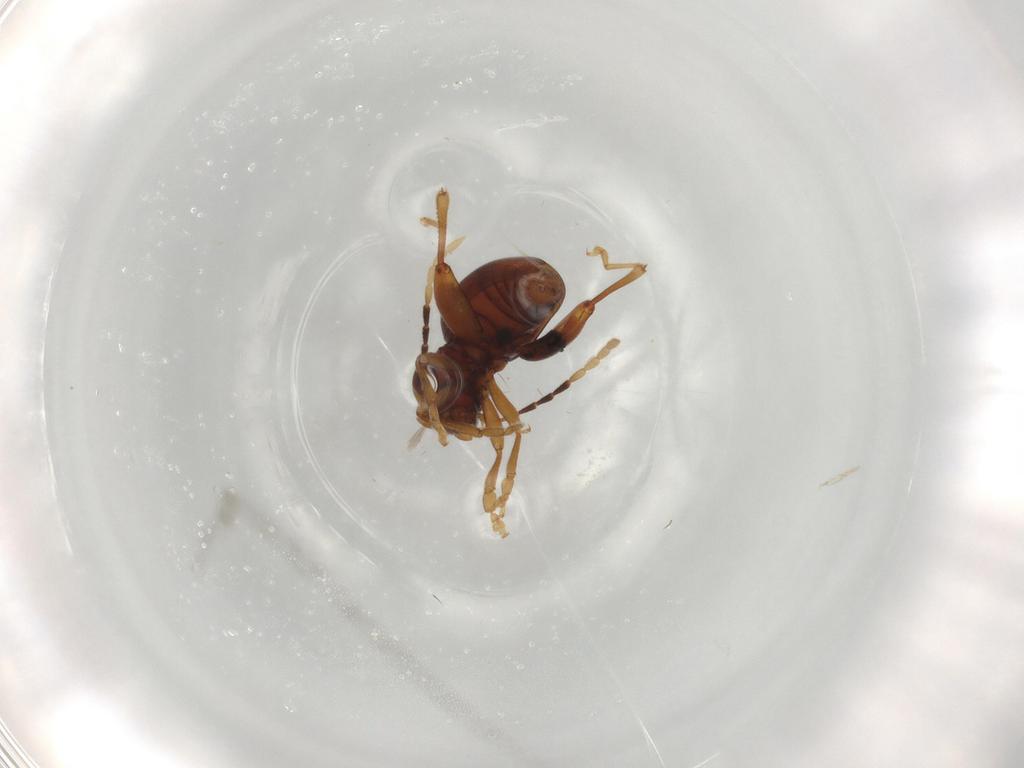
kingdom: Animalia
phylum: Arthropoda
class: Insecta
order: Coleoptera
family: Chrysomelidae
